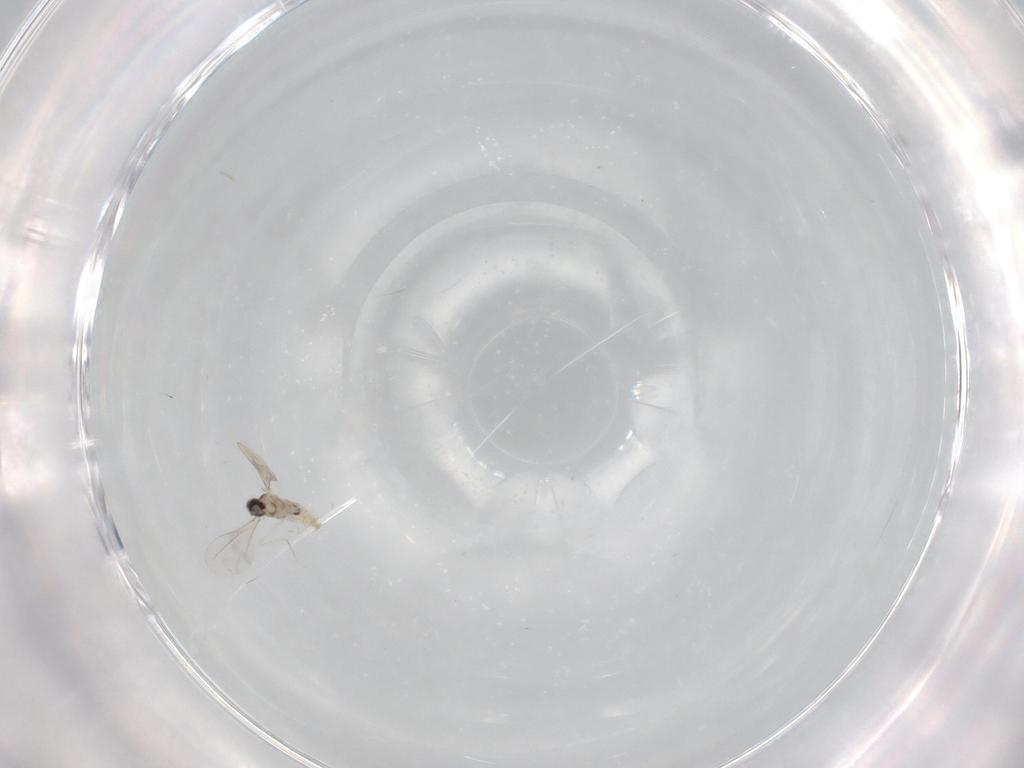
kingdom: Animalia
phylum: Arthropoda
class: Insecta
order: Diptera
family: Cecidomyiidae
